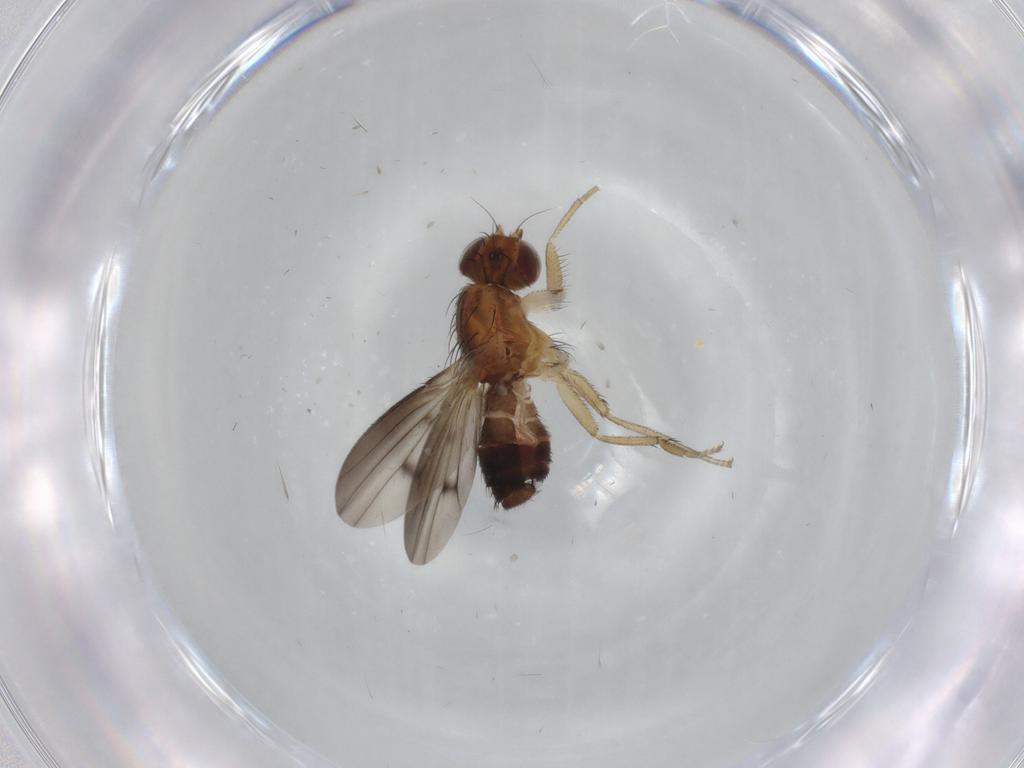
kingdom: Animalia
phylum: Arthropoda
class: Insecta
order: Diptera
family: Heleomyzidae
